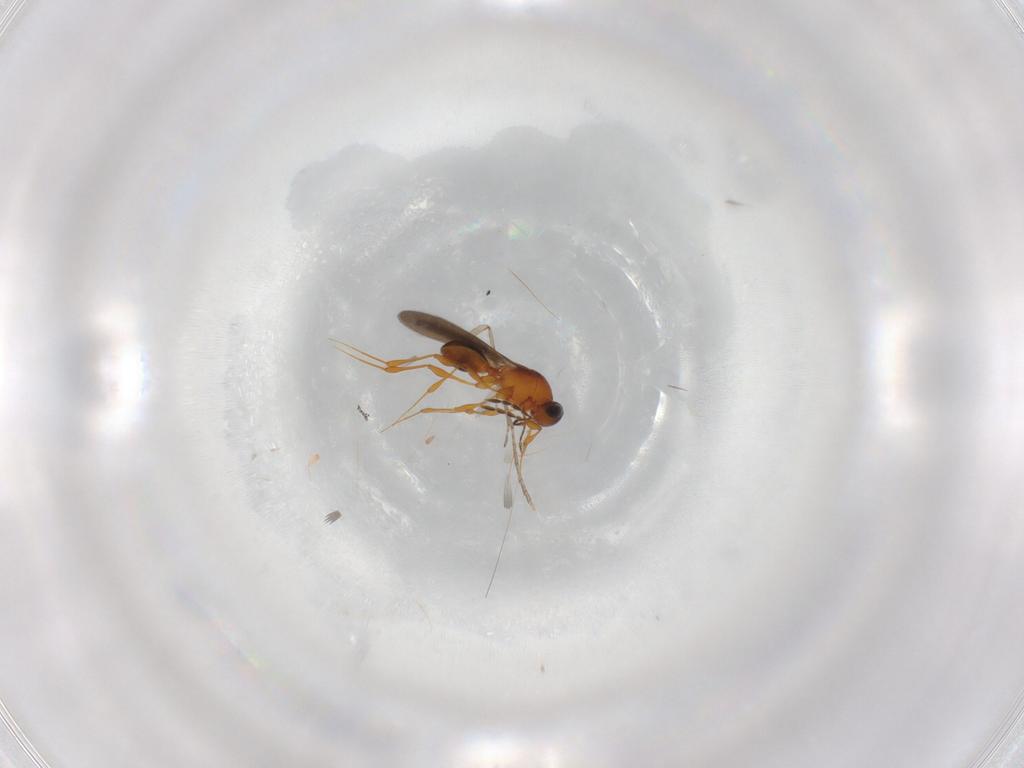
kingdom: Animalia
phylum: Arthropoda
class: Insecta
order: Hymenoptera
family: Platygastridae
